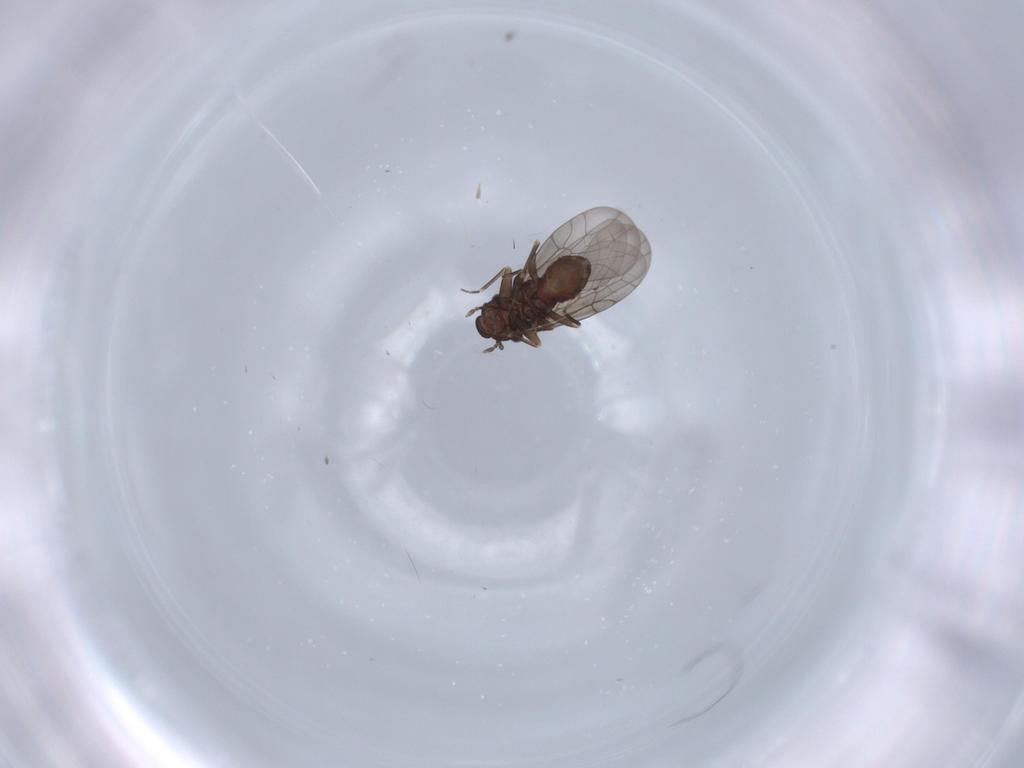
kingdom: Animalia
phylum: Arthropoda
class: Insecta
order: Psocodea
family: Lepidopsocidae
